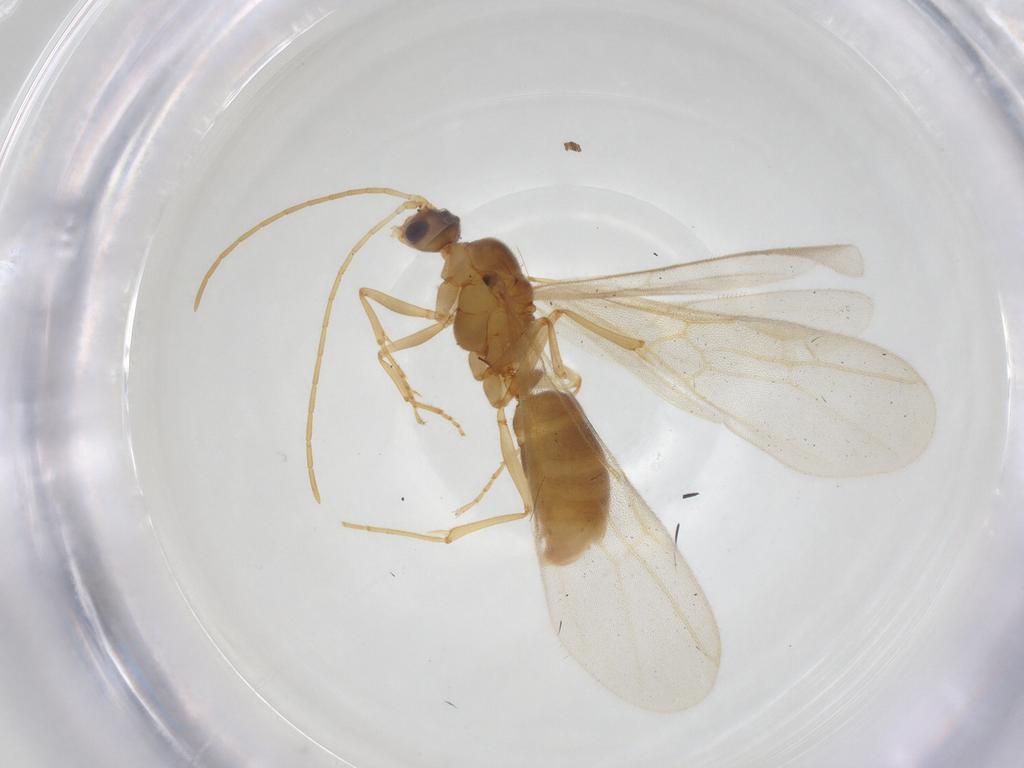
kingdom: Animalia
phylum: Arthropoda
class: Insecta
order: Hymenoptera
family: Formicidae
